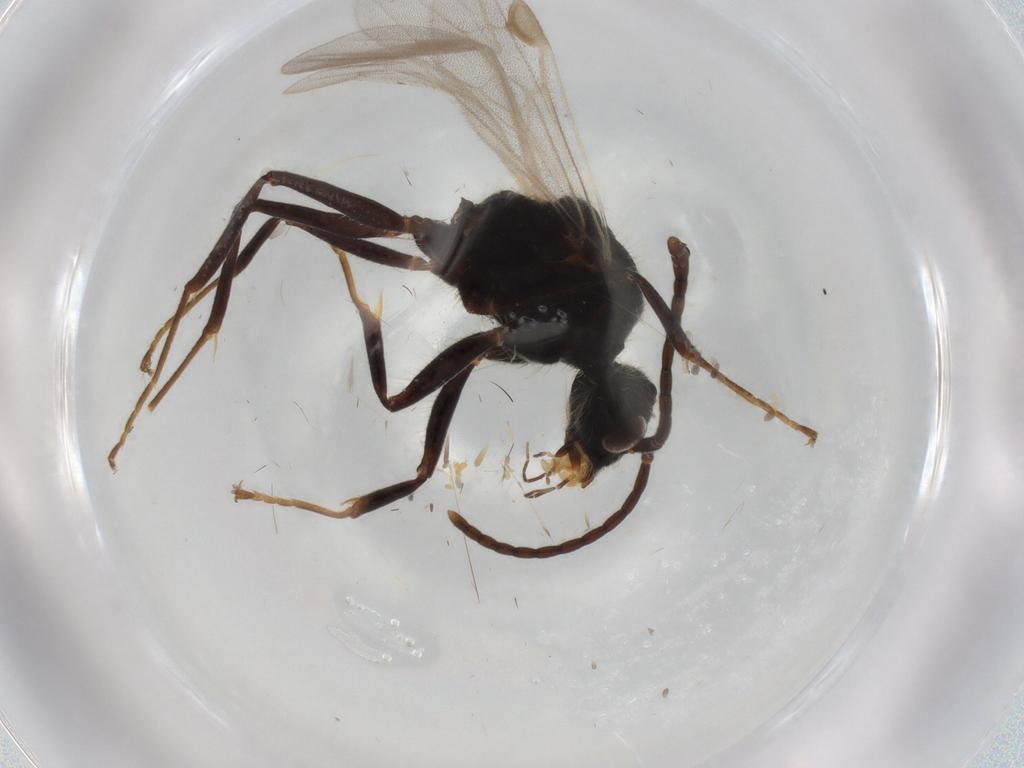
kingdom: Animalia
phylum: Arthropoda
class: Insecta
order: Hymenoptera
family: Formicidae
